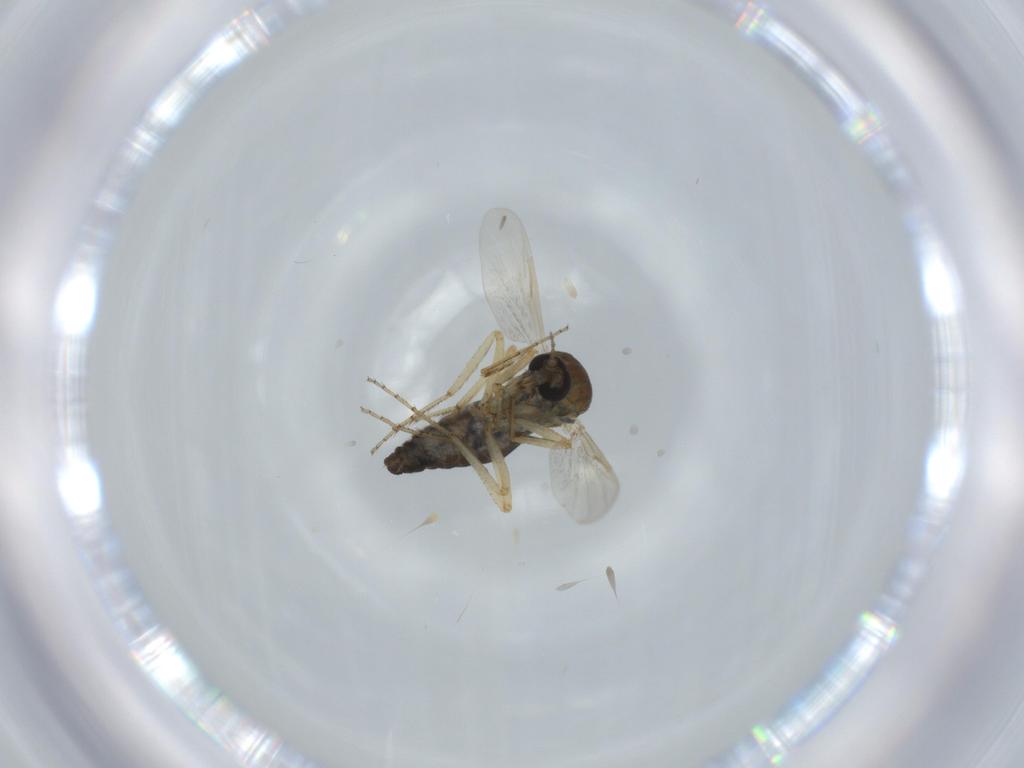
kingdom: Animalia
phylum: Arthropoda
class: Insecta
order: Diptera
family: Ceratopogonidae
